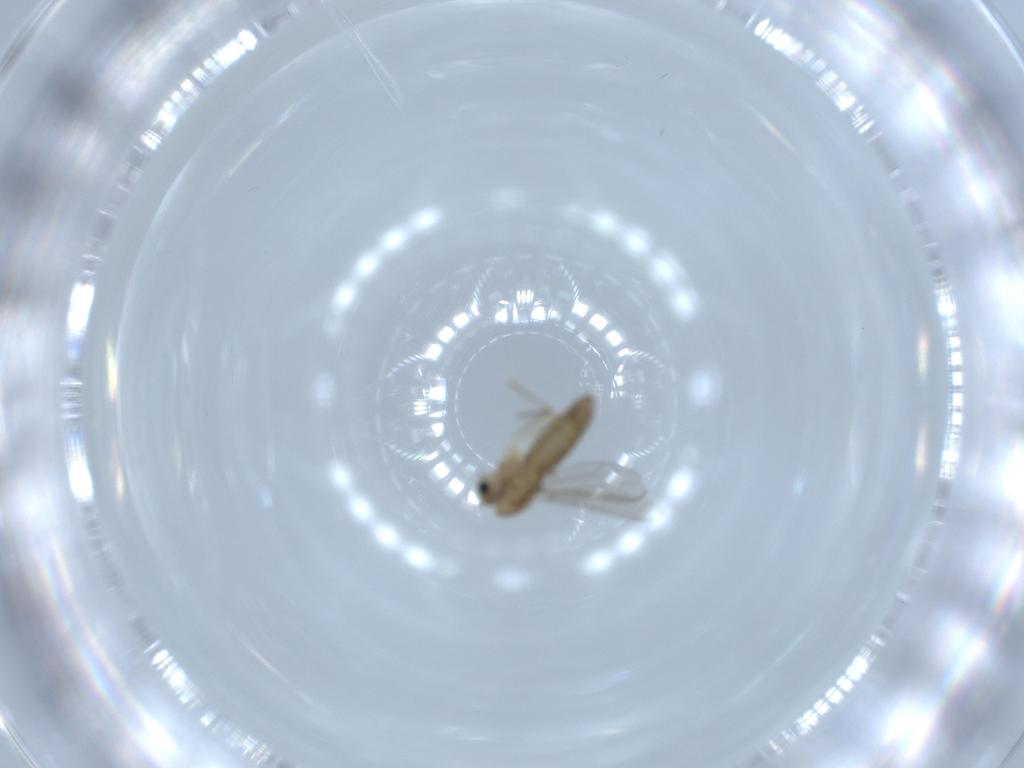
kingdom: Animalia
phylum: Arthropoda
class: Insecta
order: Diptera
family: Chironomidae
